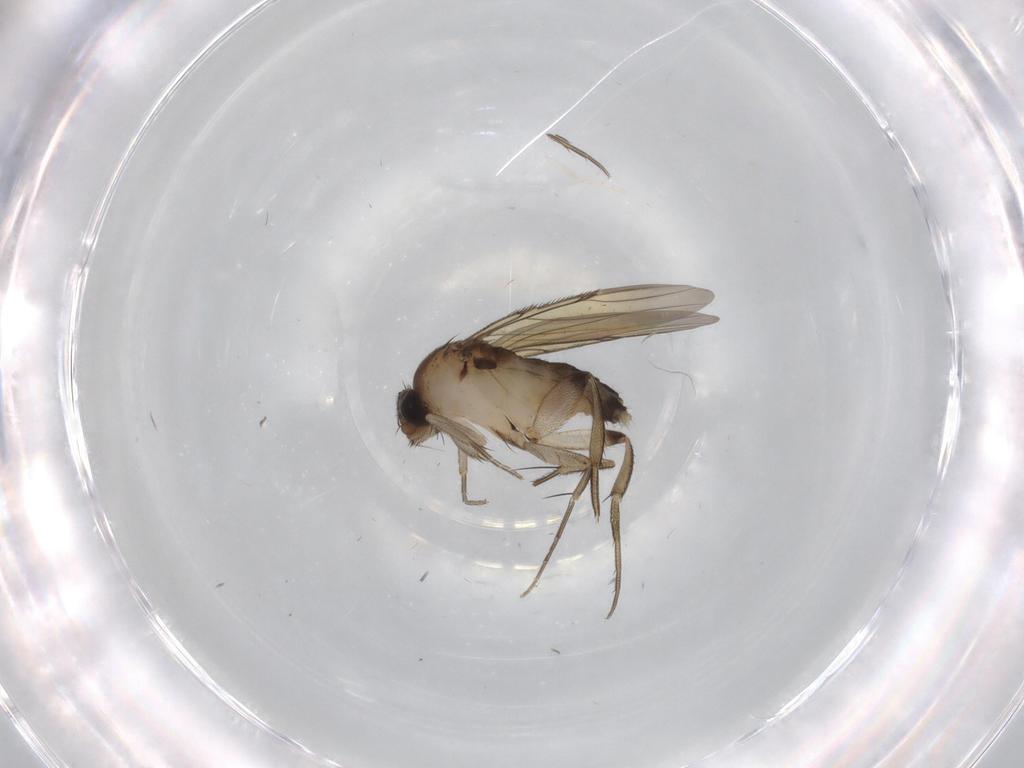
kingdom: Animalia
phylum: Arthropoda
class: Insecta
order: Diptera
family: Phoridae
